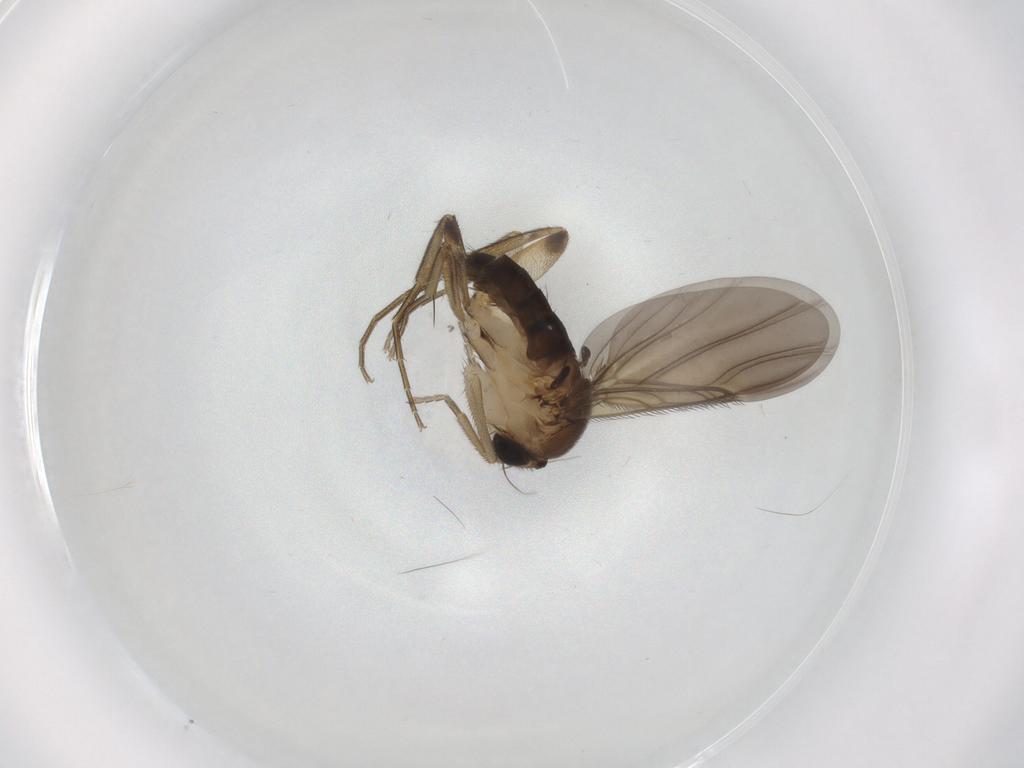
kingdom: Animalia
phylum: Arthropoda
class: Insecta
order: Diptera
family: Phoridae
